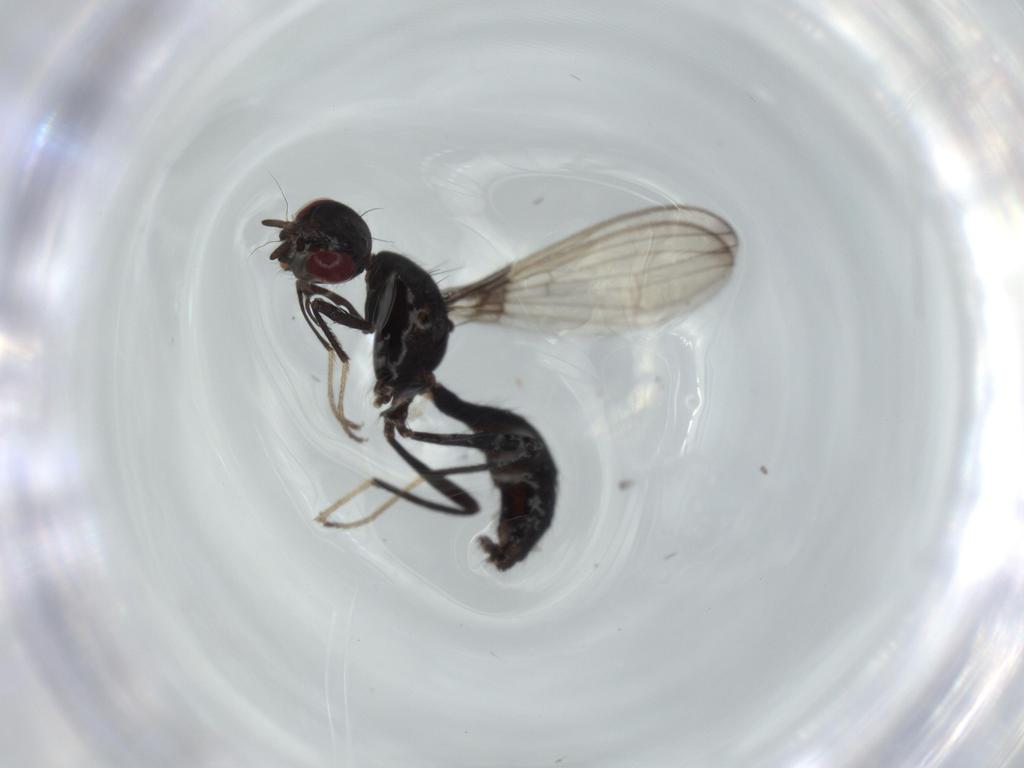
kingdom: Animalia
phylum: Arthropoda
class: Insecta
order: Diptera
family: Richardiidae
